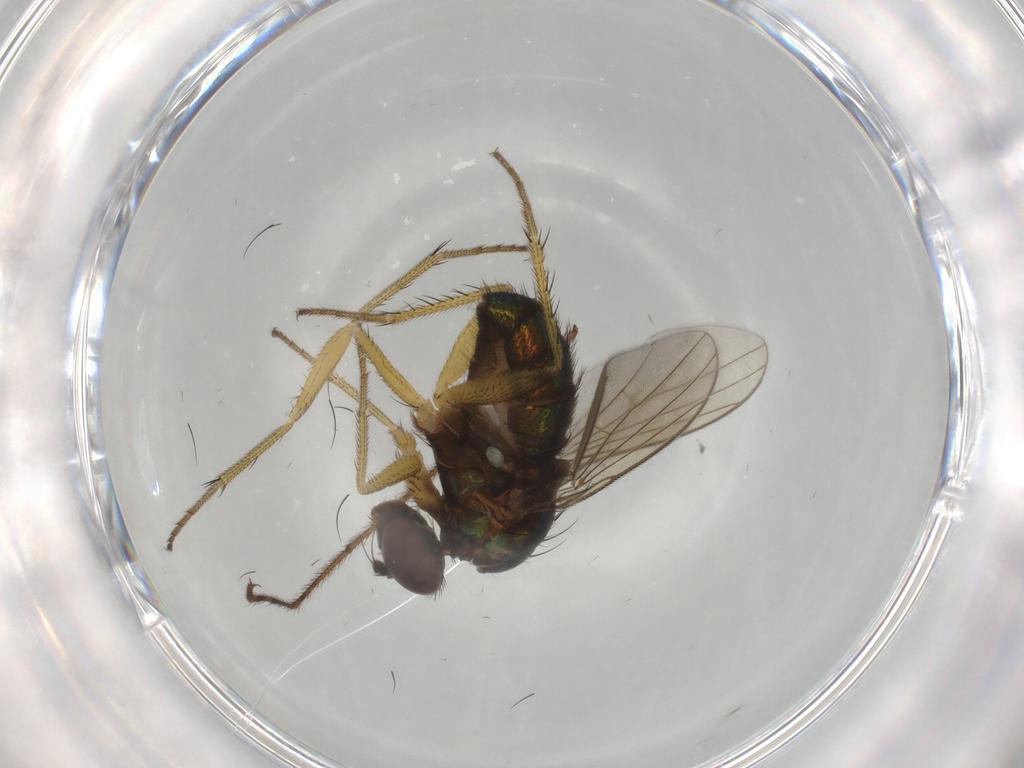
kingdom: Animalia
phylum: Arthropoda
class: Insecta
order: Diptera
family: Dolichopodidae
